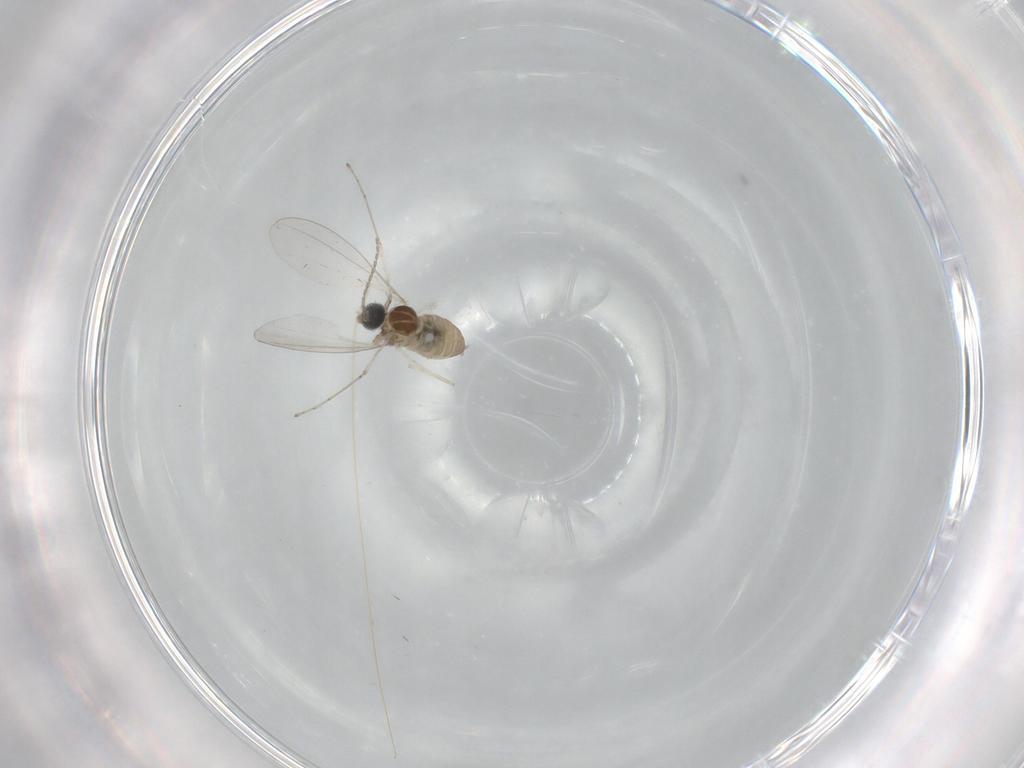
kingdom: Animalia
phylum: Arthropoda
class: Insecta
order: Diptera
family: Cecidomyiidae
